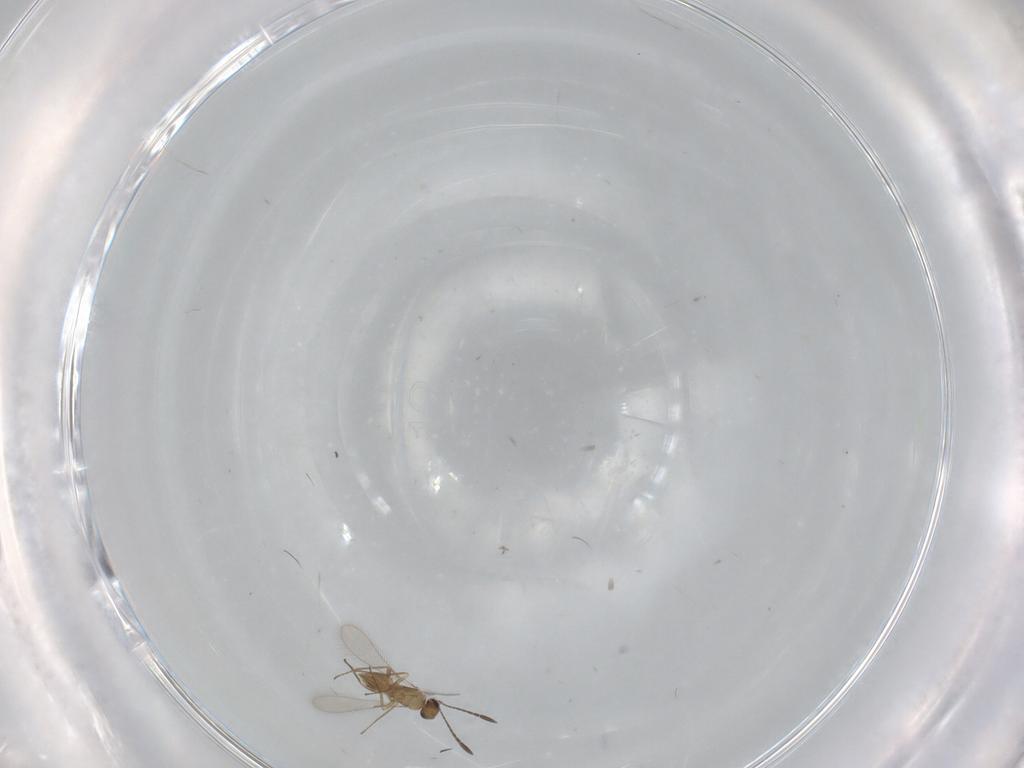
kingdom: Animalia
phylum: Arthropoda
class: Insecta
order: Hymenoptera
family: Mymaridae
